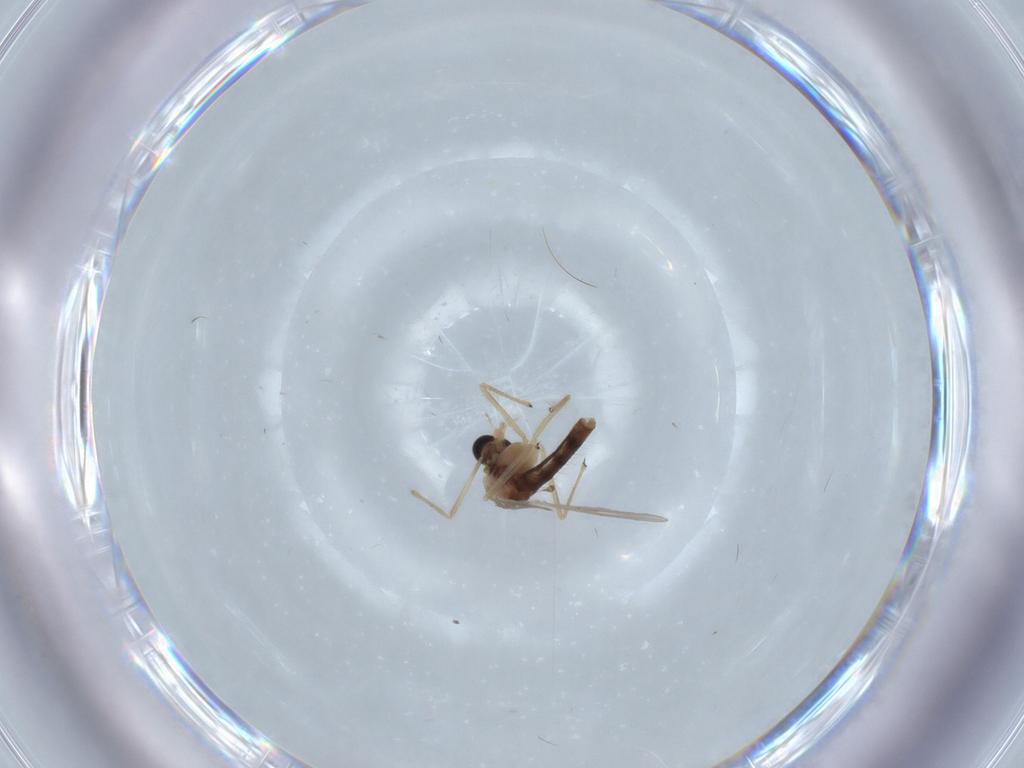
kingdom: Animalia
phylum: Arthropoda
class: Insecta
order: Diptera
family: Chironomidae
